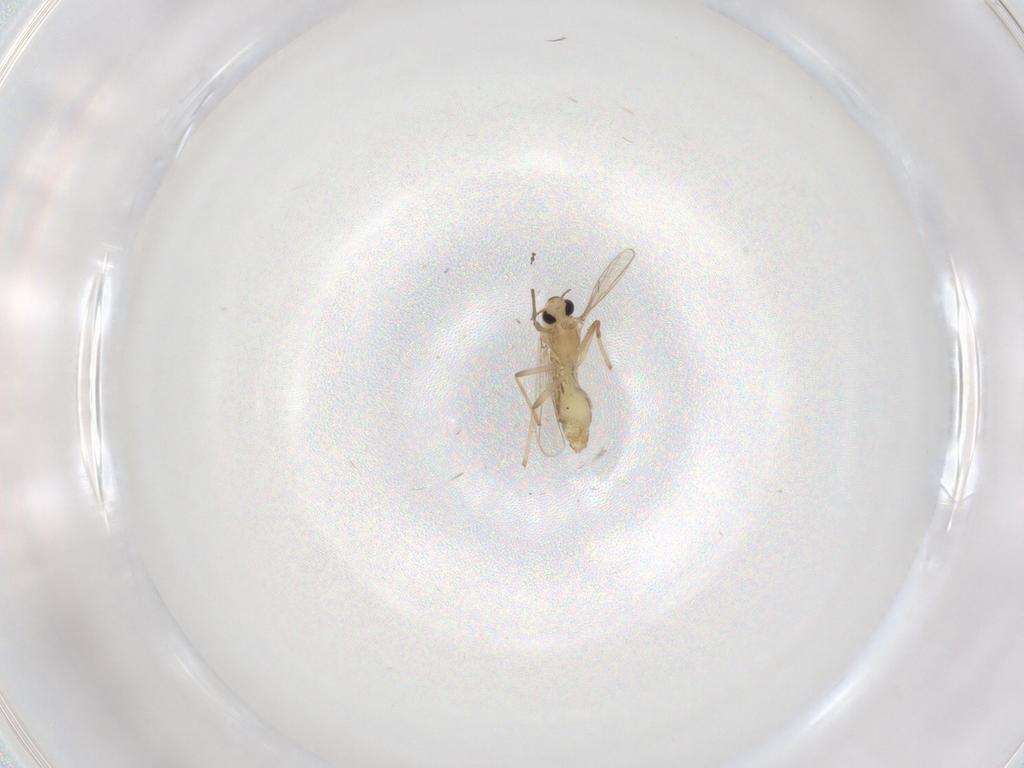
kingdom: Animalia
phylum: Arthropoda
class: Insecta
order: Diptera
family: Chironomidae
